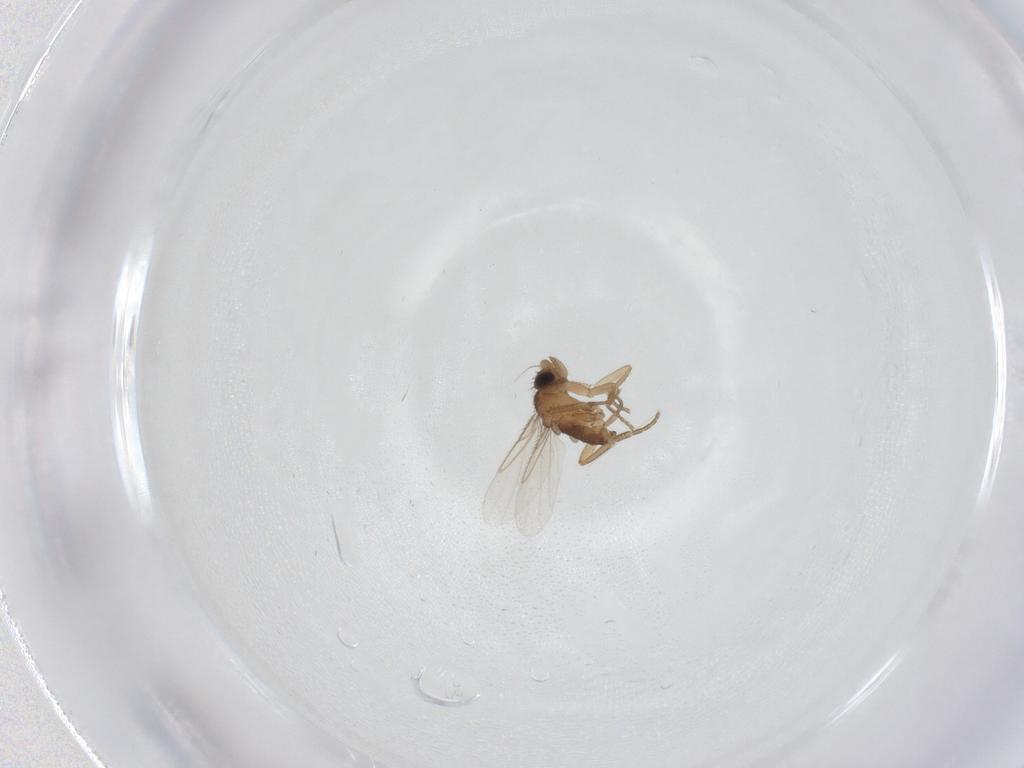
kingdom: Animalia
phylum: Arthropoda
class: Insecta
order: Diptera
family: Phoridae
